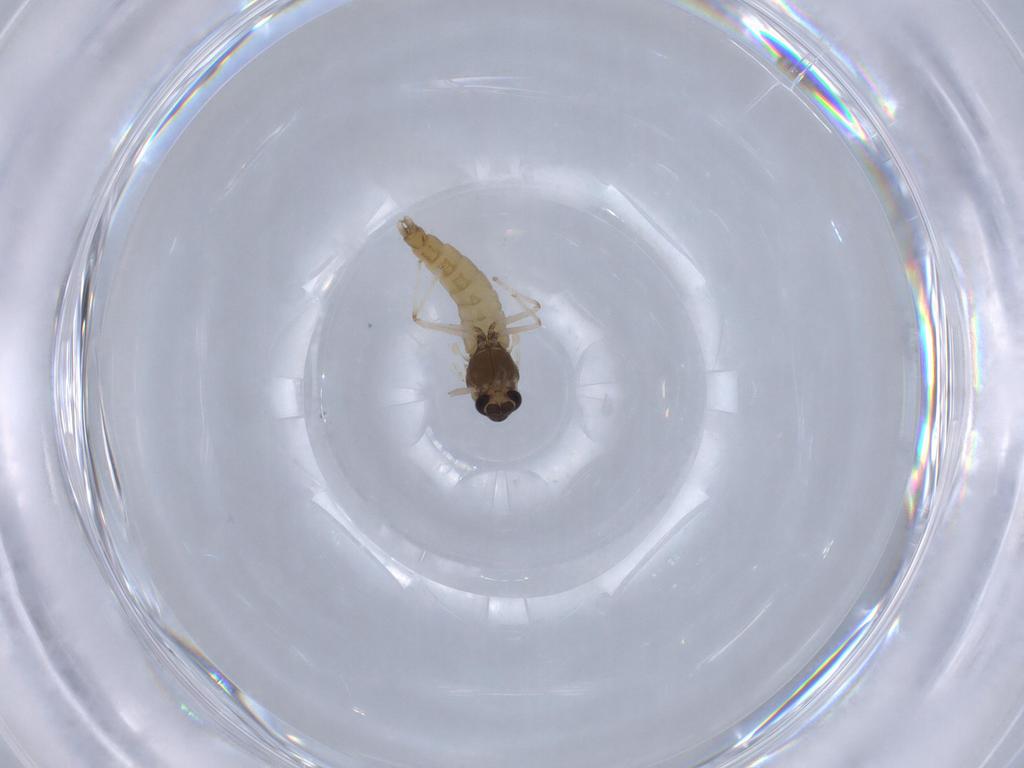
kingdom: Animalia
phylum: Arthropoda
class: Insecta
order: Diptera
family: Chironomidae
